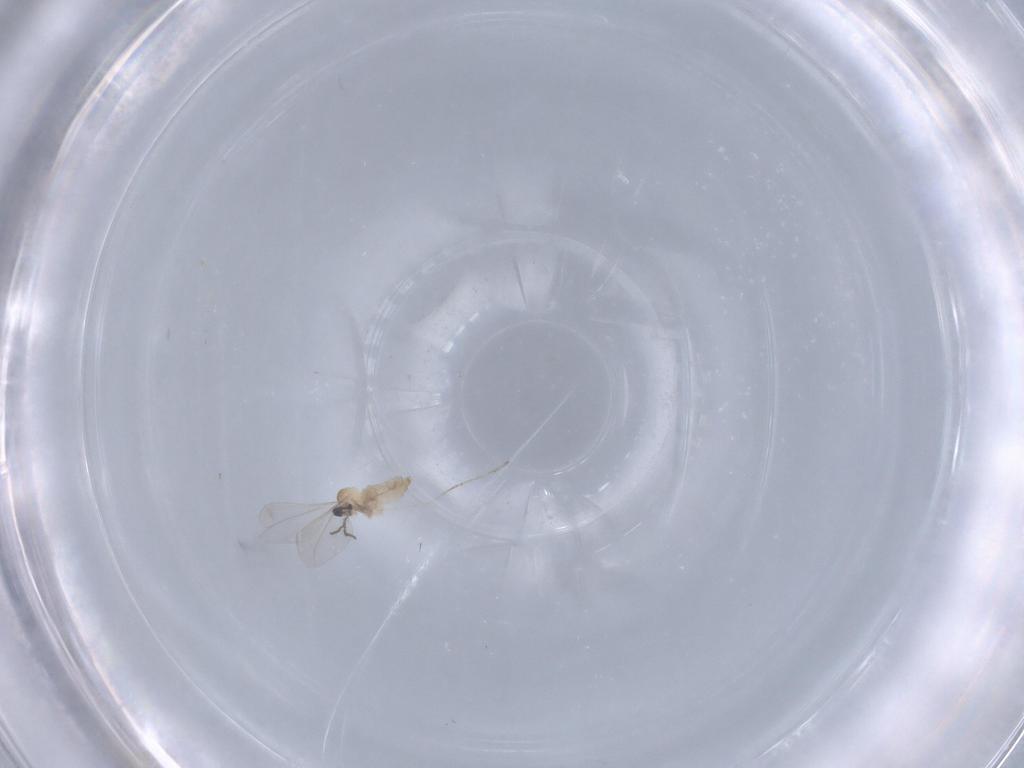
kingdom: Animalia
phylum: Arthropoda
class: Insecta
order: Diptera
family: Cecidomyiidae
